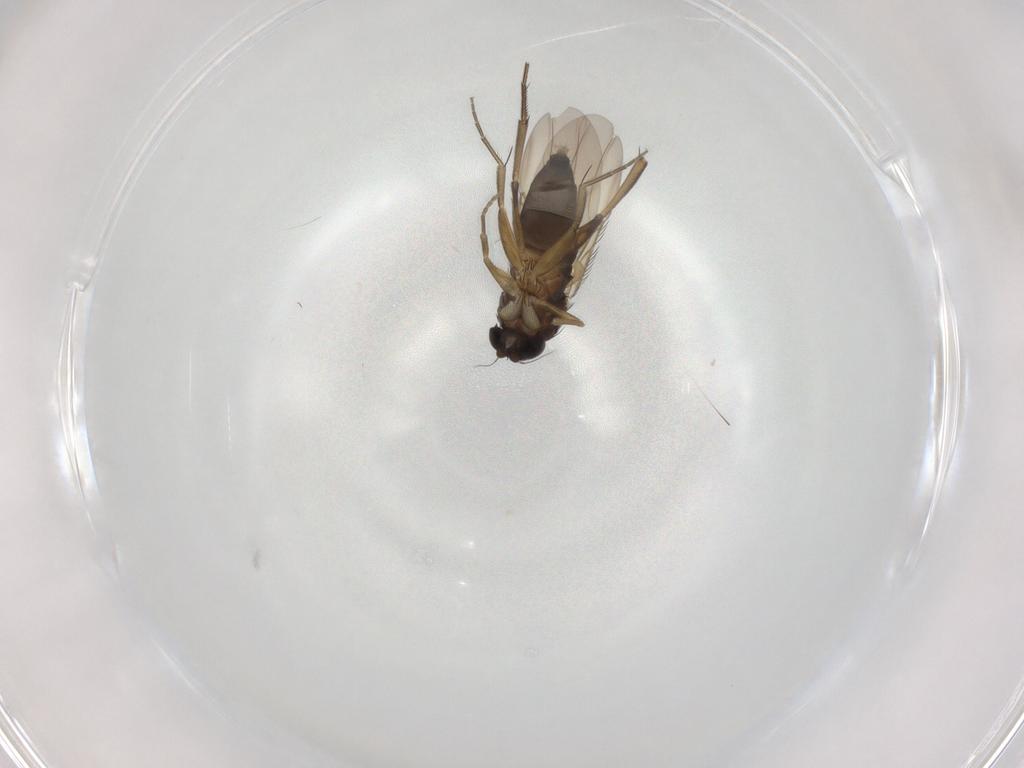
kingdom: Animalia
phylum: Arthropoda
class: Insecta
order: Diptera
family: Phoridae
